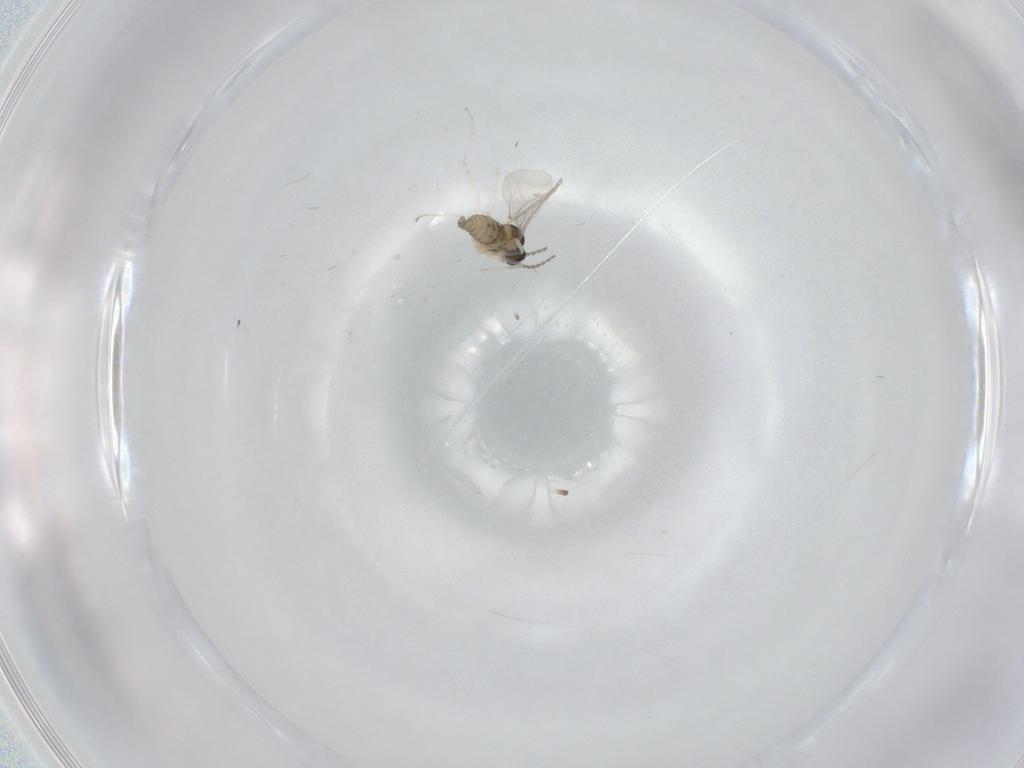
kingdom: Animalia
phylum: Arthropoda
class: Insecta
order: Diptera
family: Cecidomyiidae
